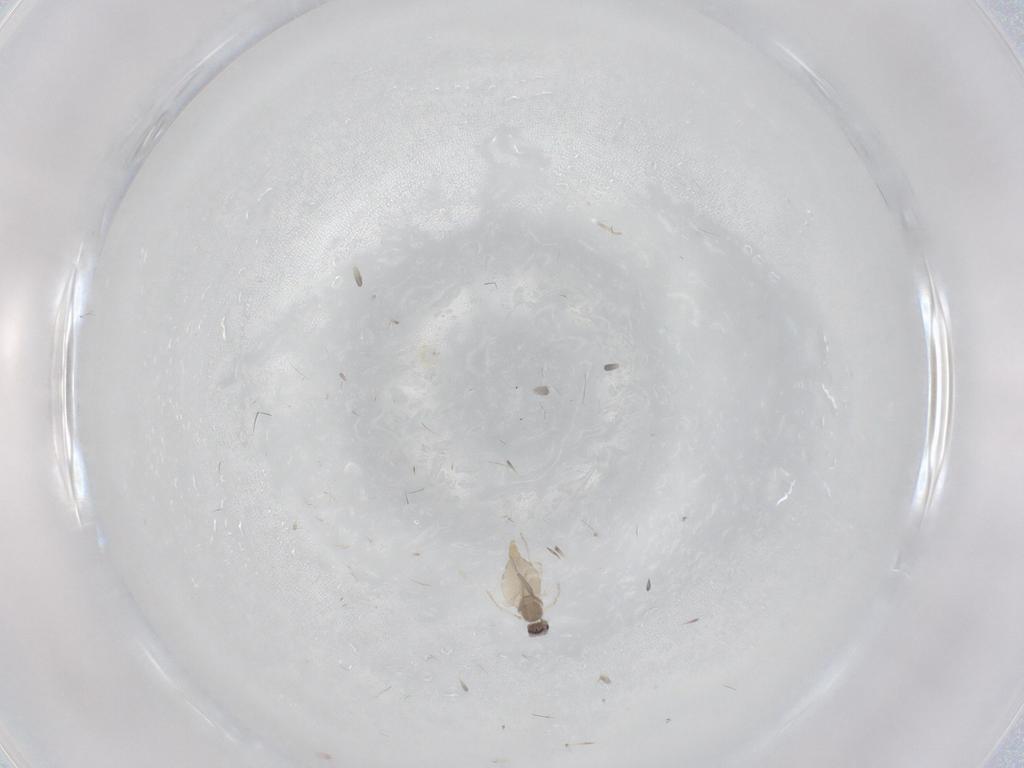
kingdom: Animalia
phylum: Arthropoda
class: Insecta
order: Diptera
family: Cecidomyiidae
